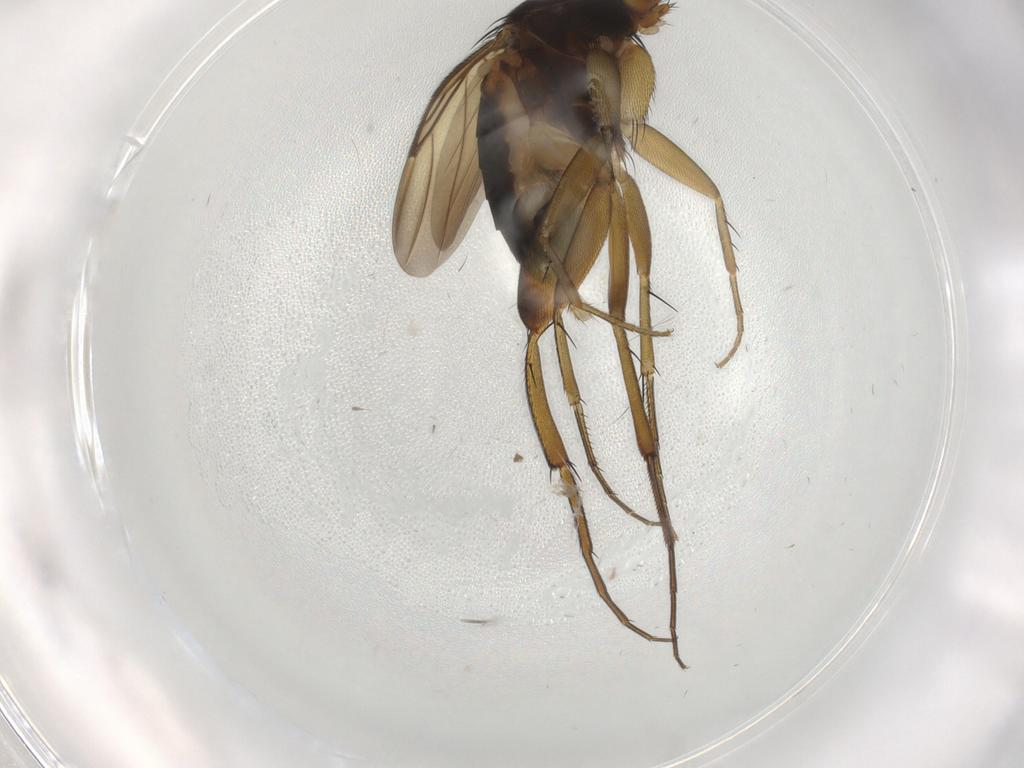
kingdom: Animalia
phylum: Arthropoda
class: Insecta
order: Diptera
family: Phoridae
